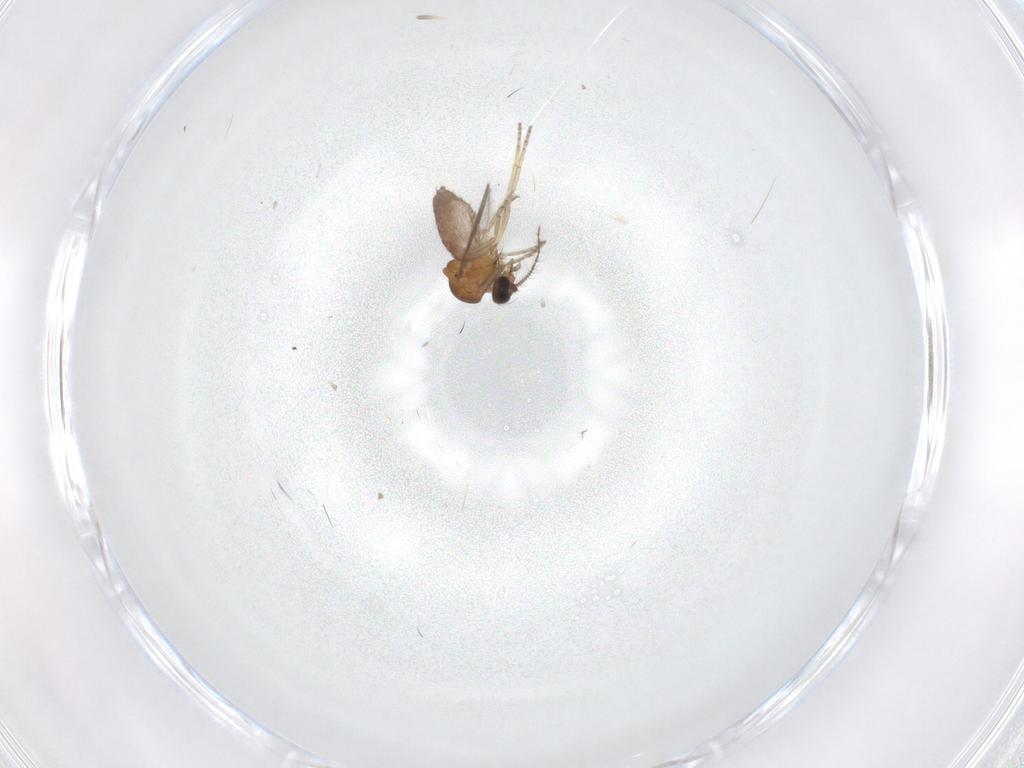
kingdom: Animalia
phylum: Arthropoda
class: Insecta
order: Diptera
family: Ceratopogonidae
